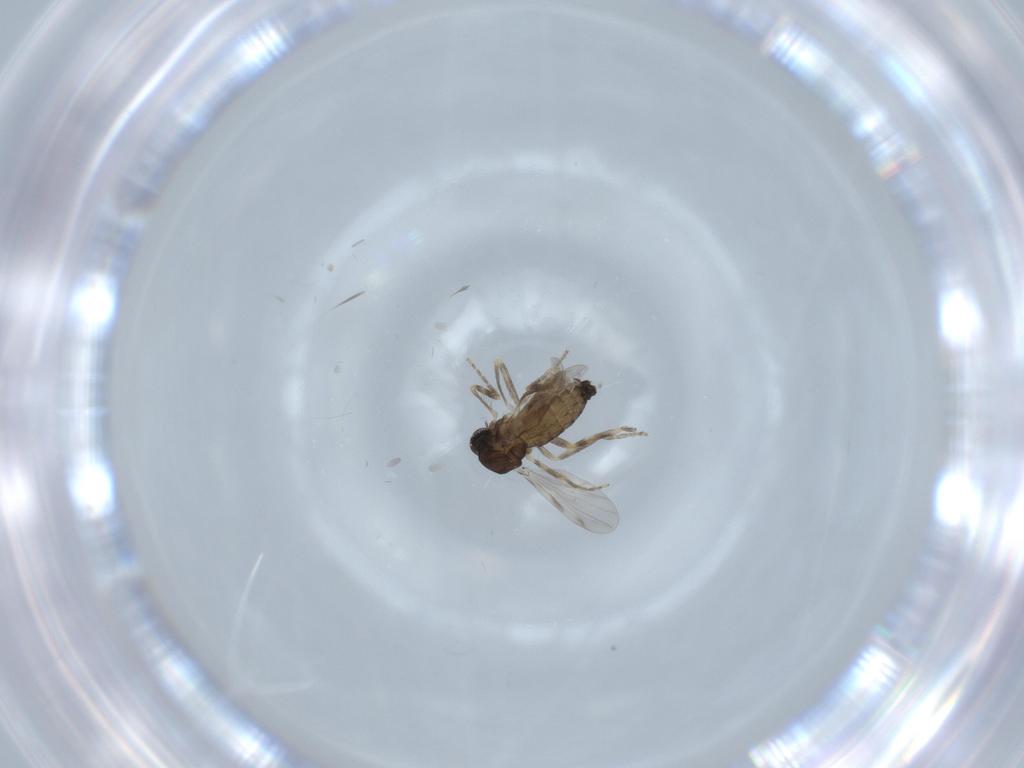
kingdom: Animalia
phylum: Arthropoda
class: Insecta
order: Diptera
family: Ceratopogonidae
